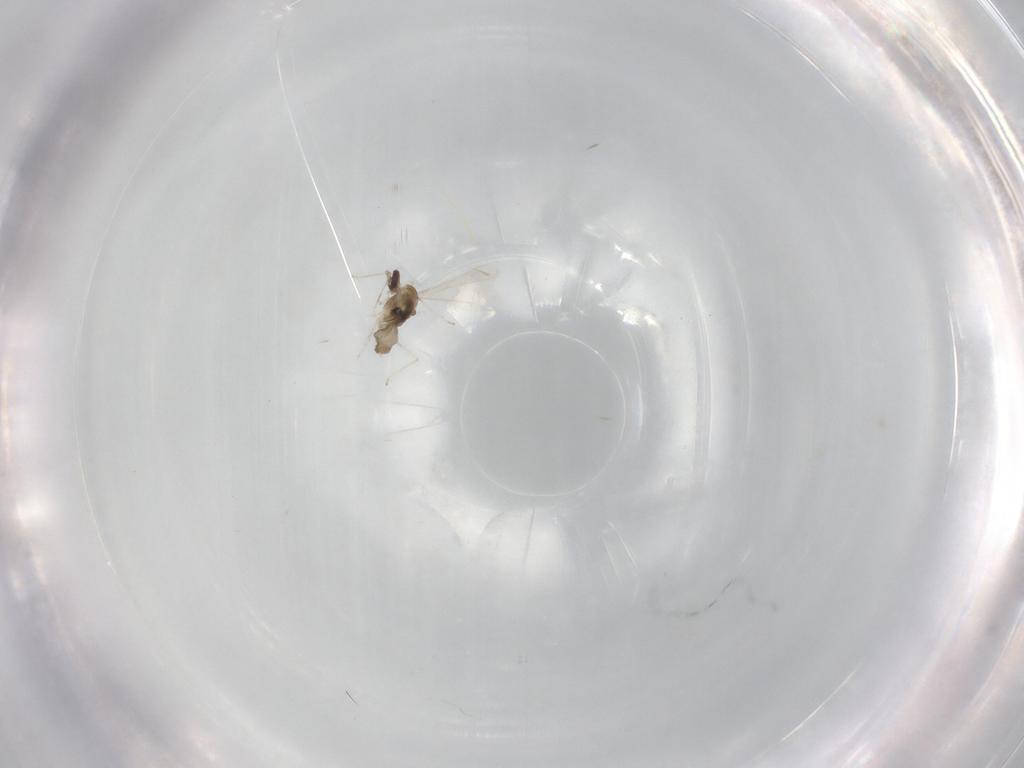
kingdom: Animalia
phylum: Arthropoda
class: Insecta
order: Diptera
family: Cecidomyiidae
